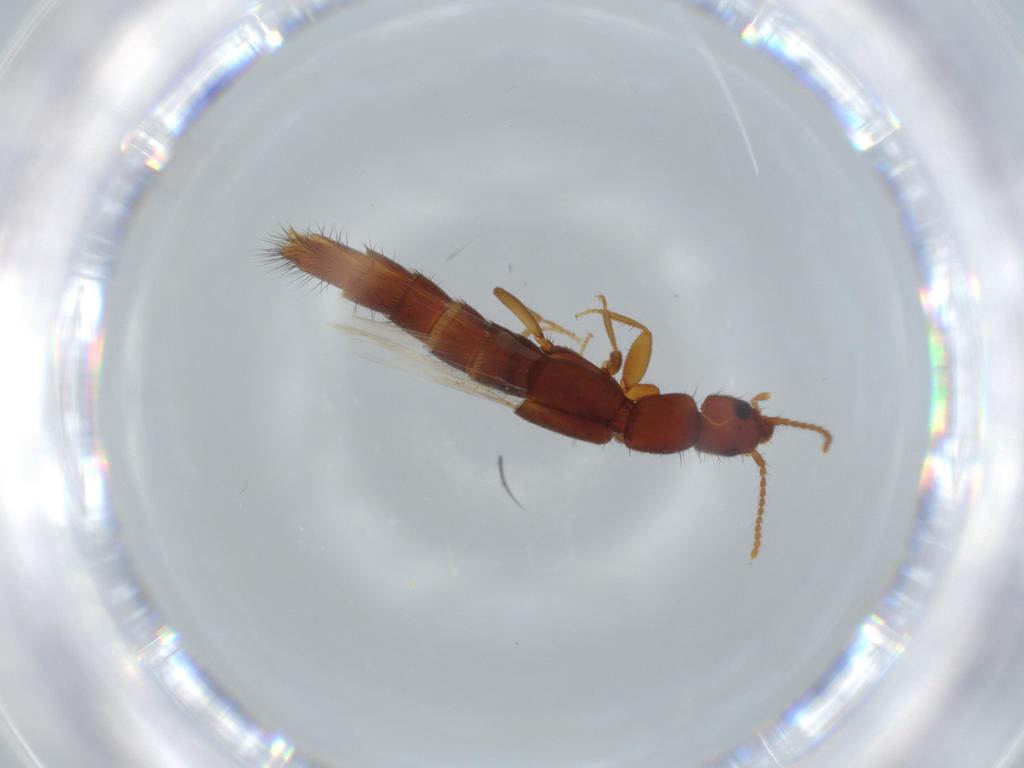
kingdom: Animalia
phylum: Arthropoda
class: Insecta
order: Coleoptera
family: Staphylinidae
